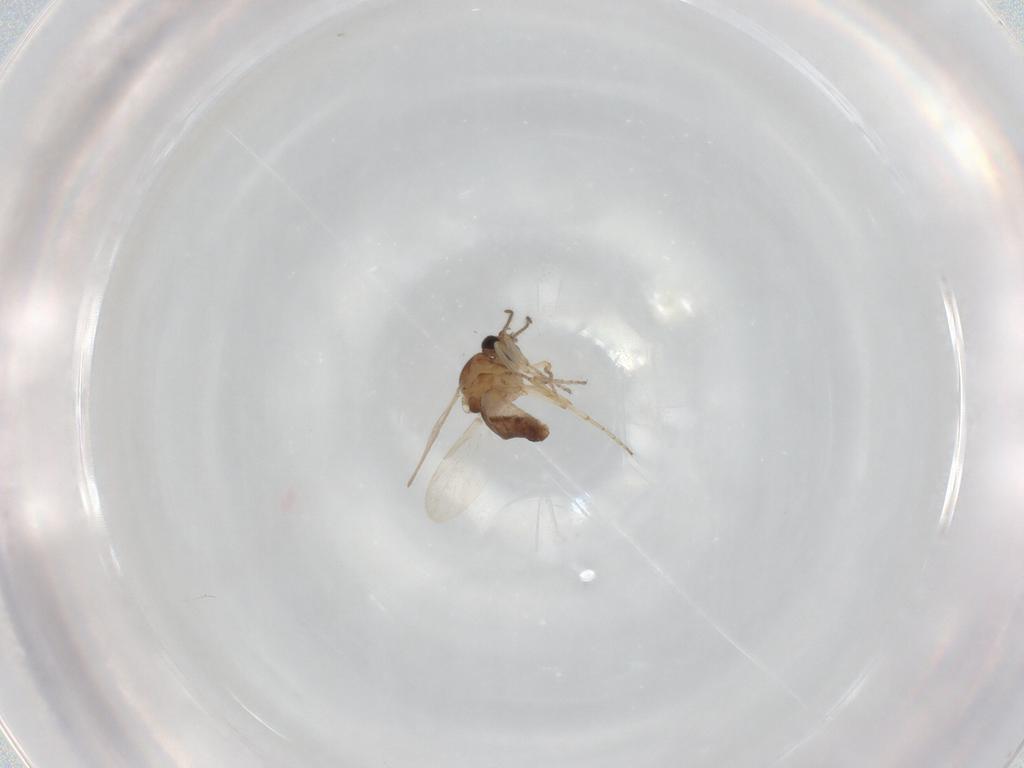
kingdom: Animalia
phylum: Arthropoda
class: Insecta
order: Diptera
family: Ceratopogonidae
